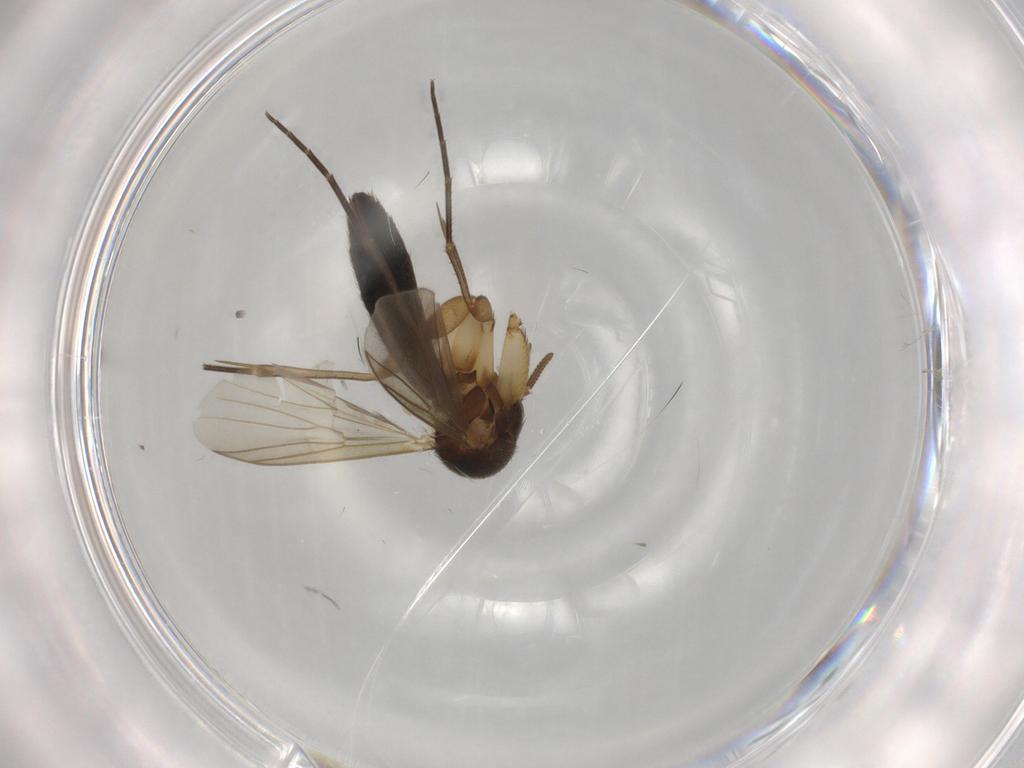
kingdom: Animalia
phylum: Arthropoda
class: Insecta
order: Diptera
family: Mycetophilidae
